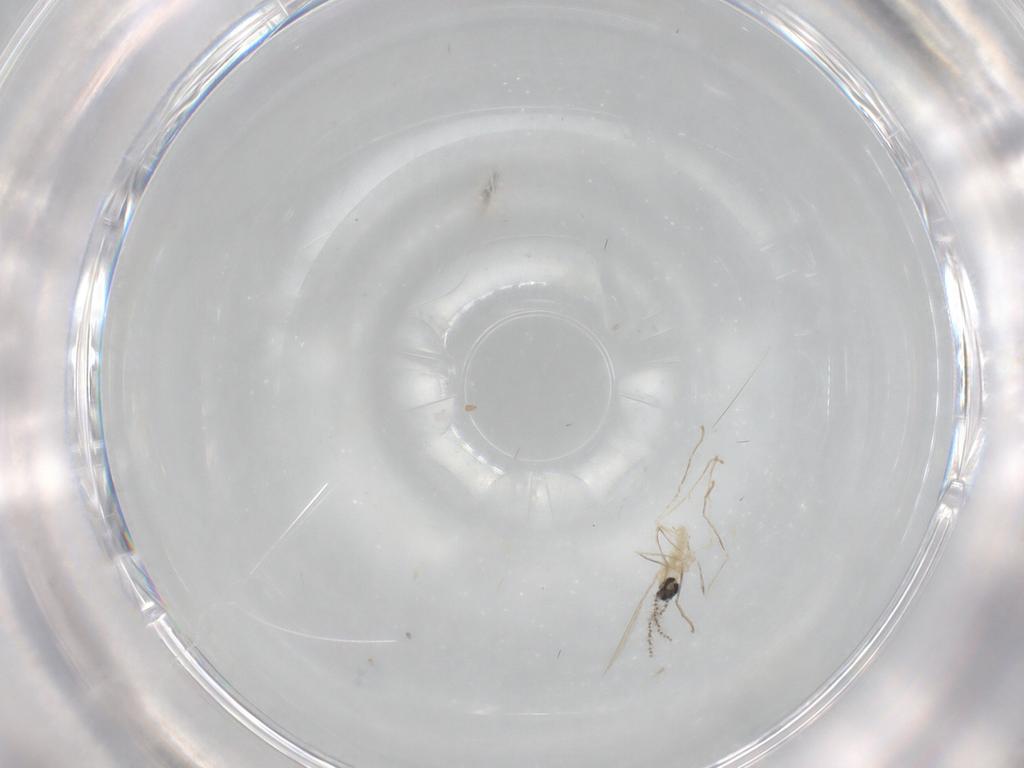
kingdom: Animalia
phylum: Arthropoda
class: Insecta
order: Diptera
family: Micropezidae
